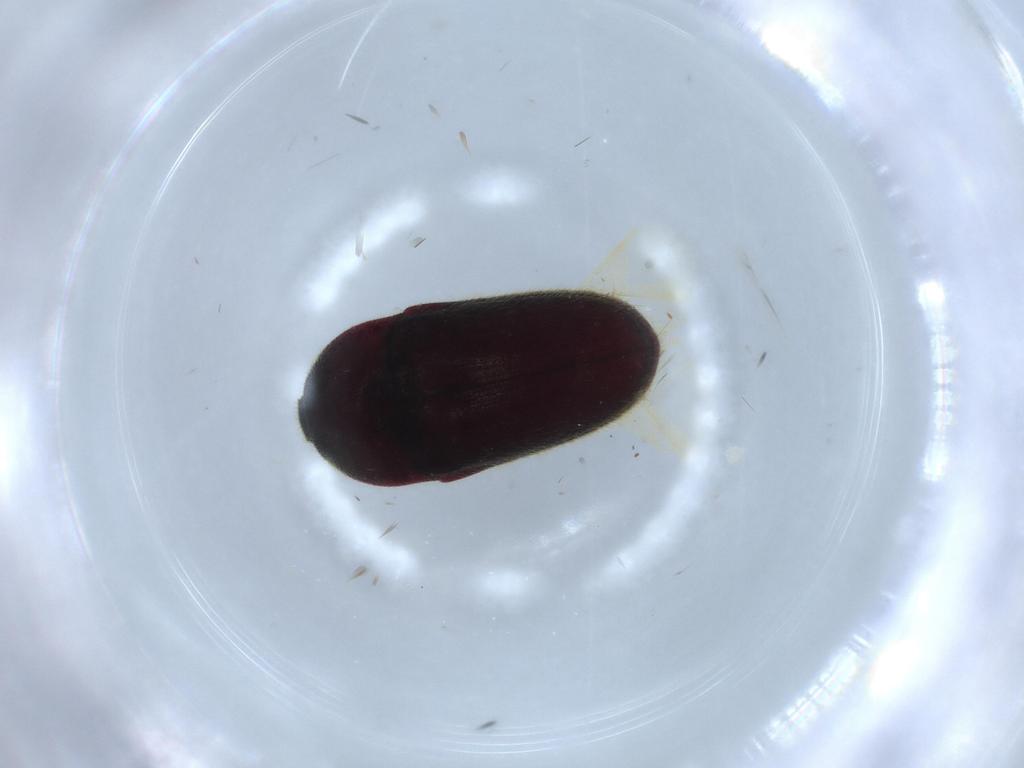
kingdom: Animalia
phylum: Arthropoda
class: Insecta
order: Coleoptera
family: Throscidae
